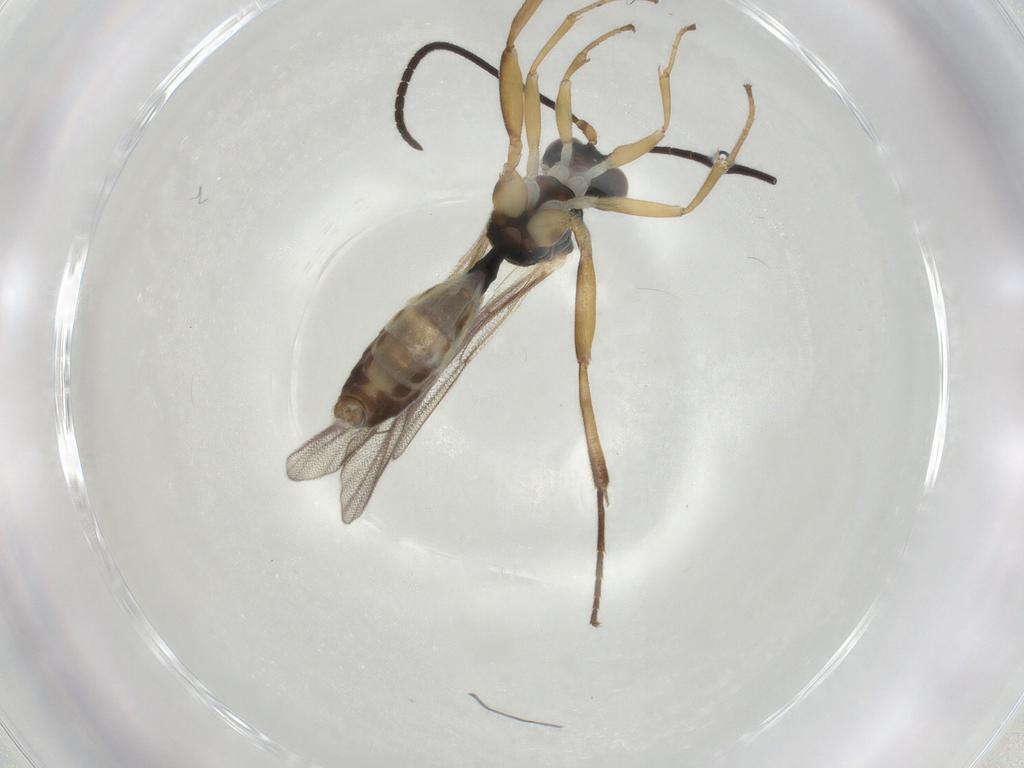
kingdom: Animalia
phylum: Arthropoda
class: Insecta
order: Hymenoptera
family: Ichneumonidae
